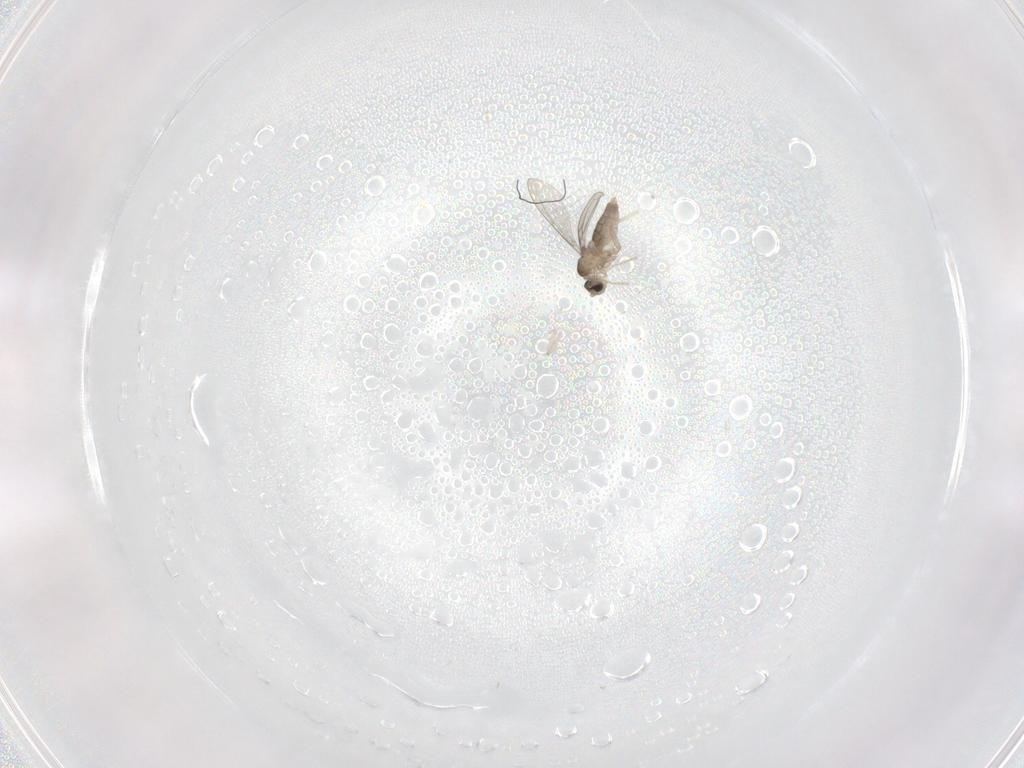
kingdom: Animalia
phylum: Arthropoda
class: Insecta
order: Diptera
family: Cecidomyiidae
